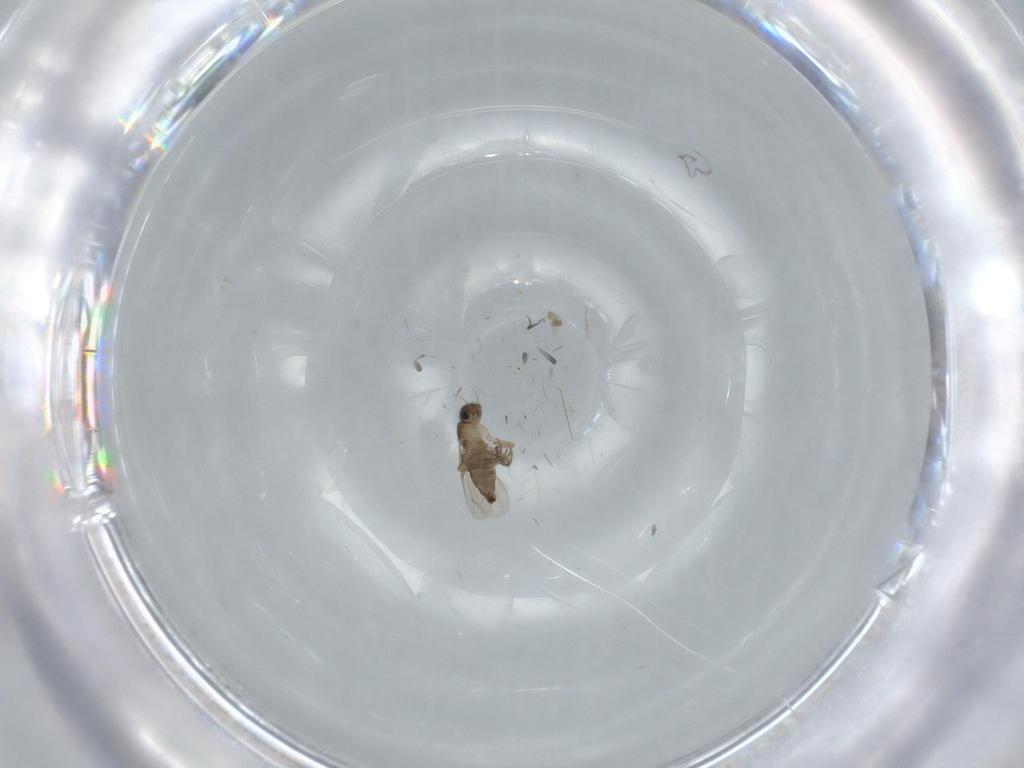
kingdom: Animalia
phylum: Arthropoda
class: Insecta
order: Diptera
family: Phoridae
